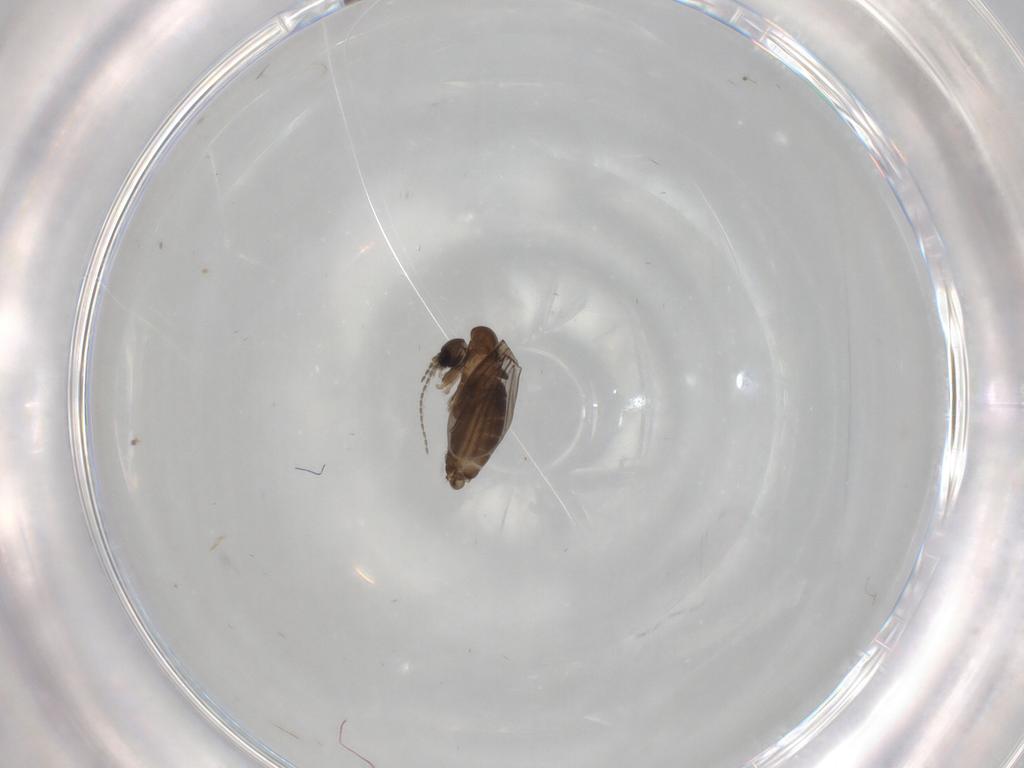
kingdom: Animalia
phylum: Arthropoda
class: Insecta
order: Diptera
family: Psychodidae
